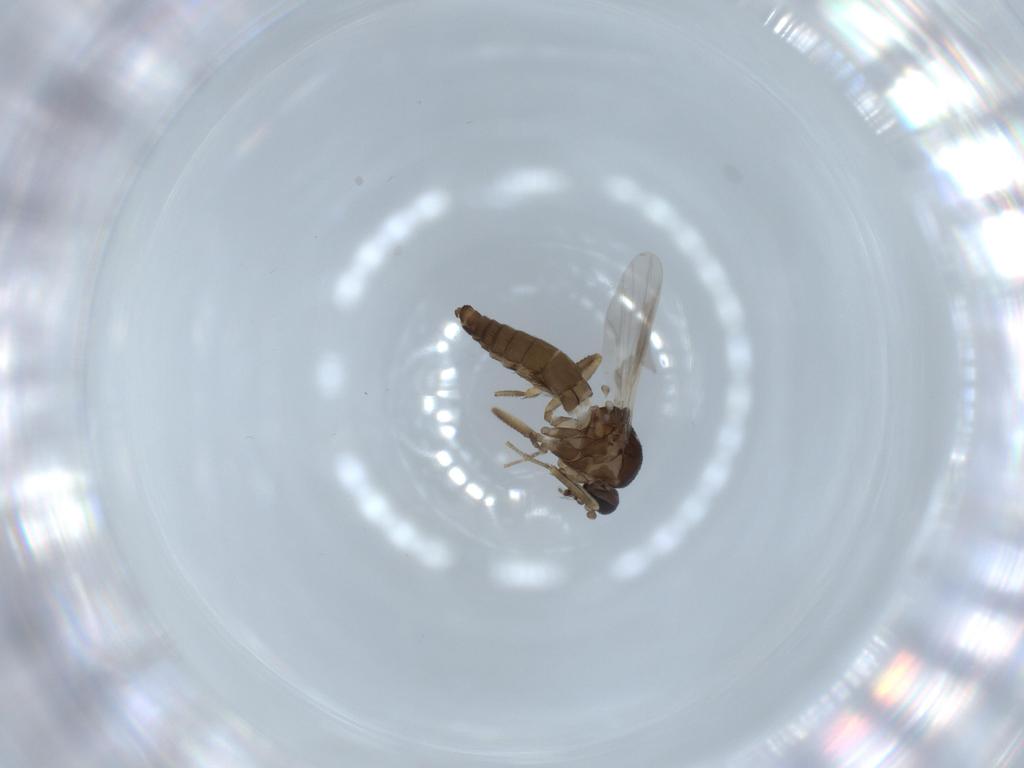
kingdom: Animalia
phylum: Arthropoda
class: Insecta
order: Diptera
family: Ceratopogonidae
